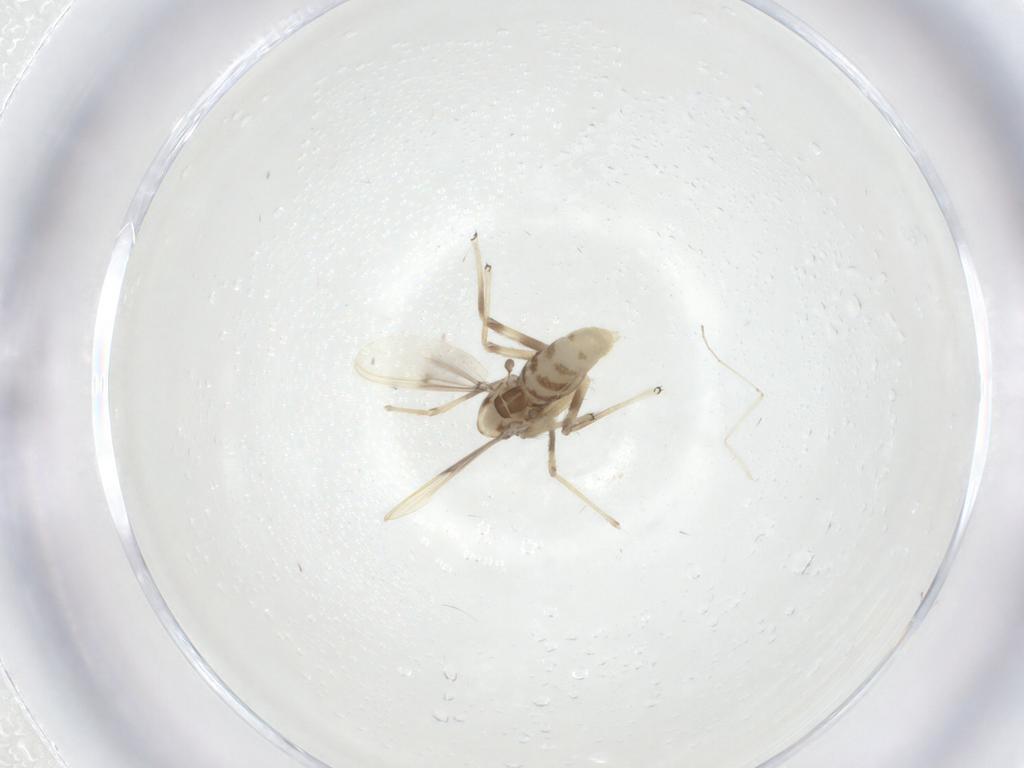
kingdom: Animalia
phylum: Arthropoda
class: Insecta
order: Diptera
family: Chironomidae
